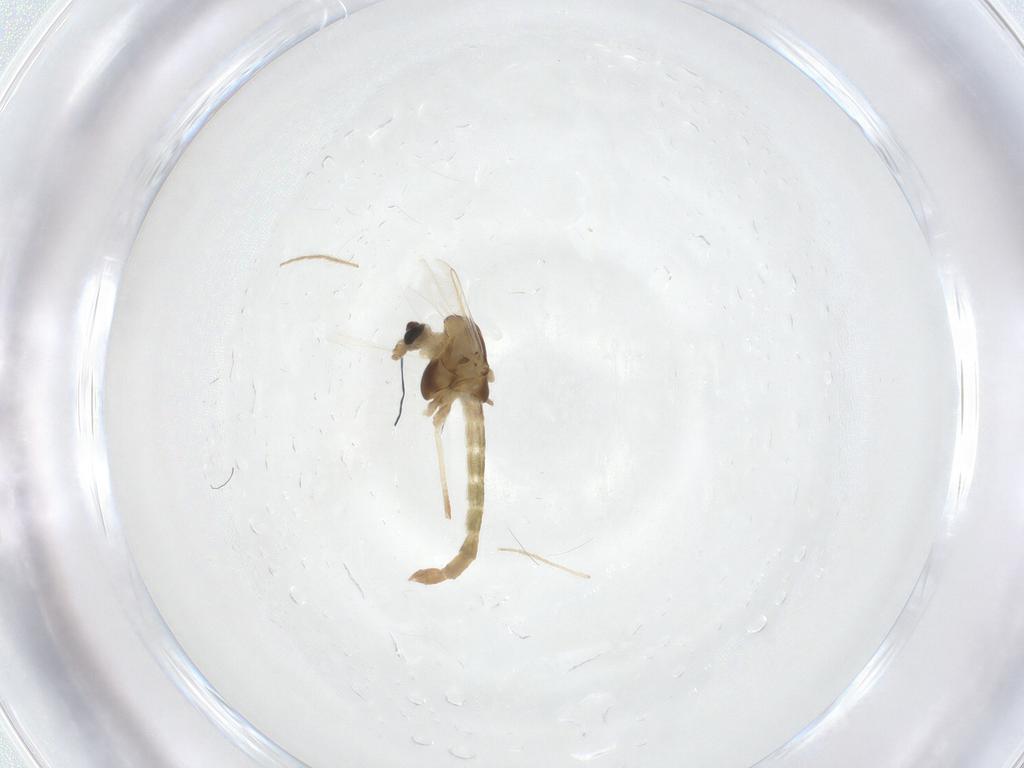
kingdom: Animalia
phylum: Arthropoda
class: Insecta
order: Diptera
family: Chironomidae
